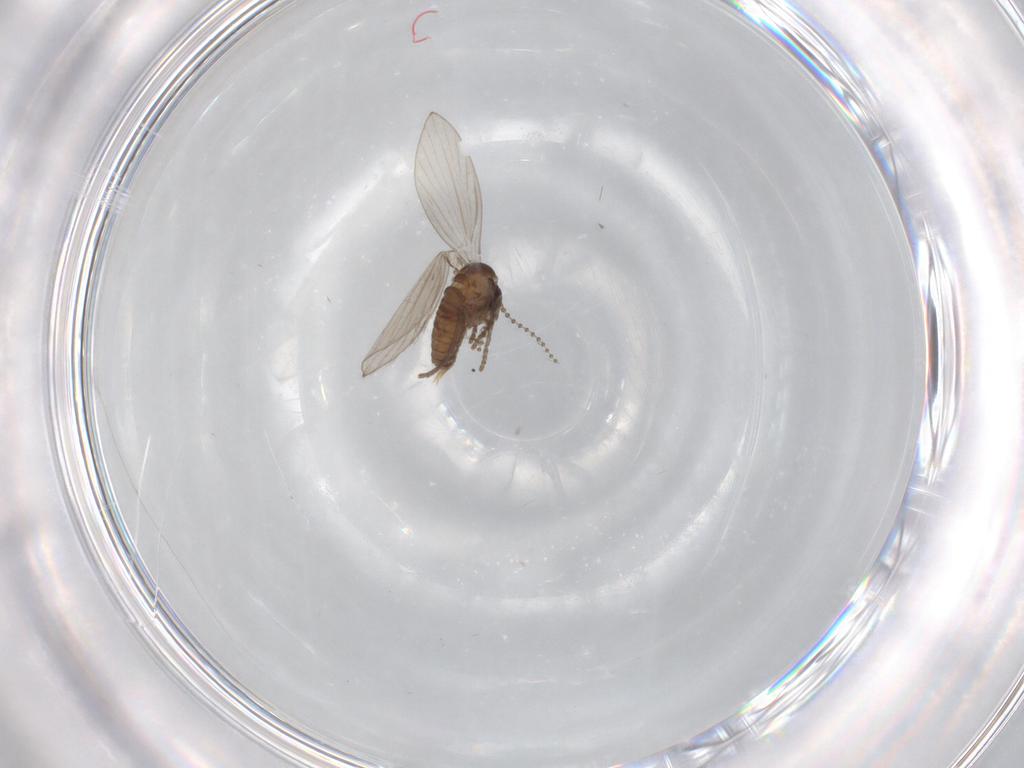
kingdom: Animalia
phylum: Arthropoda
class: Insecta
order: Diptera
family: Psychodidae
